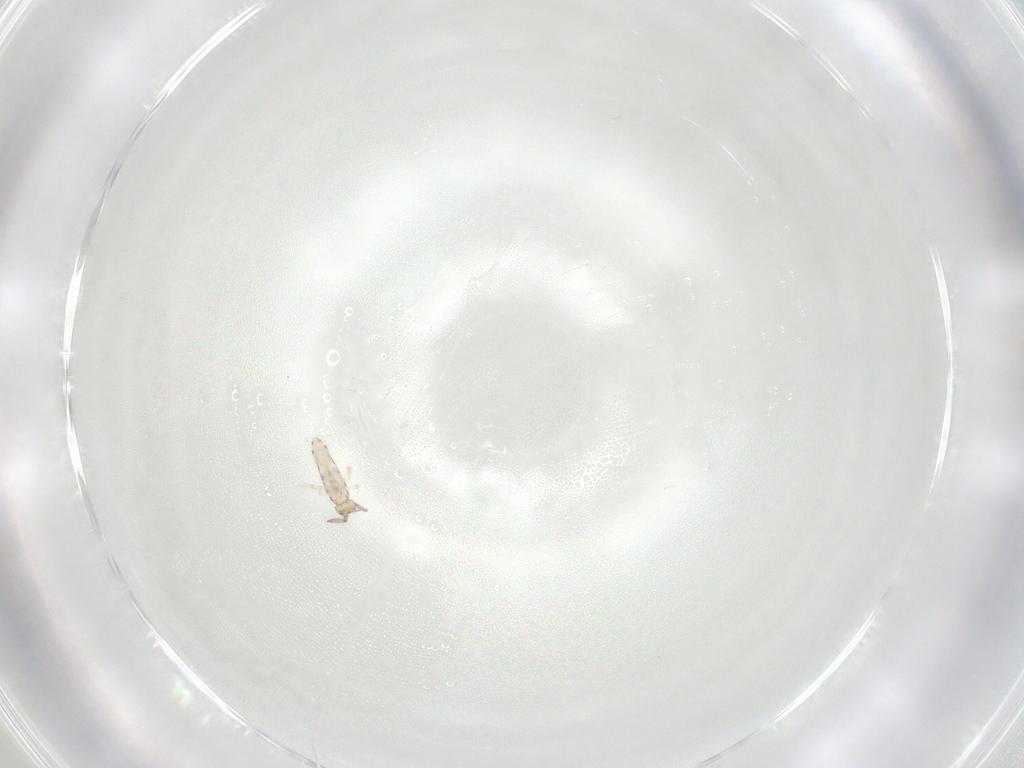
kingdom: Animalia
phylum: Arthropoda
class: Collembola
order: Entomobryomorpha
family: Entomobryidae
